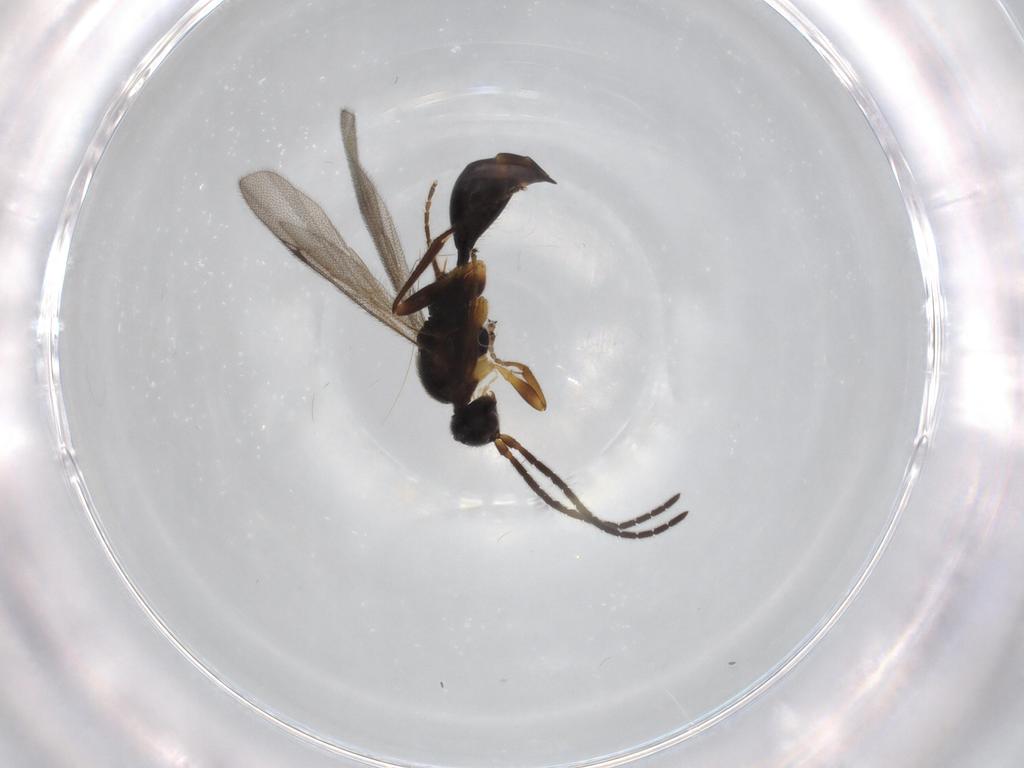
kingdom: Animalia
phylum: Arthropoda
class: Insecta
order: Hymenoptera
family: Proctotrupidae
